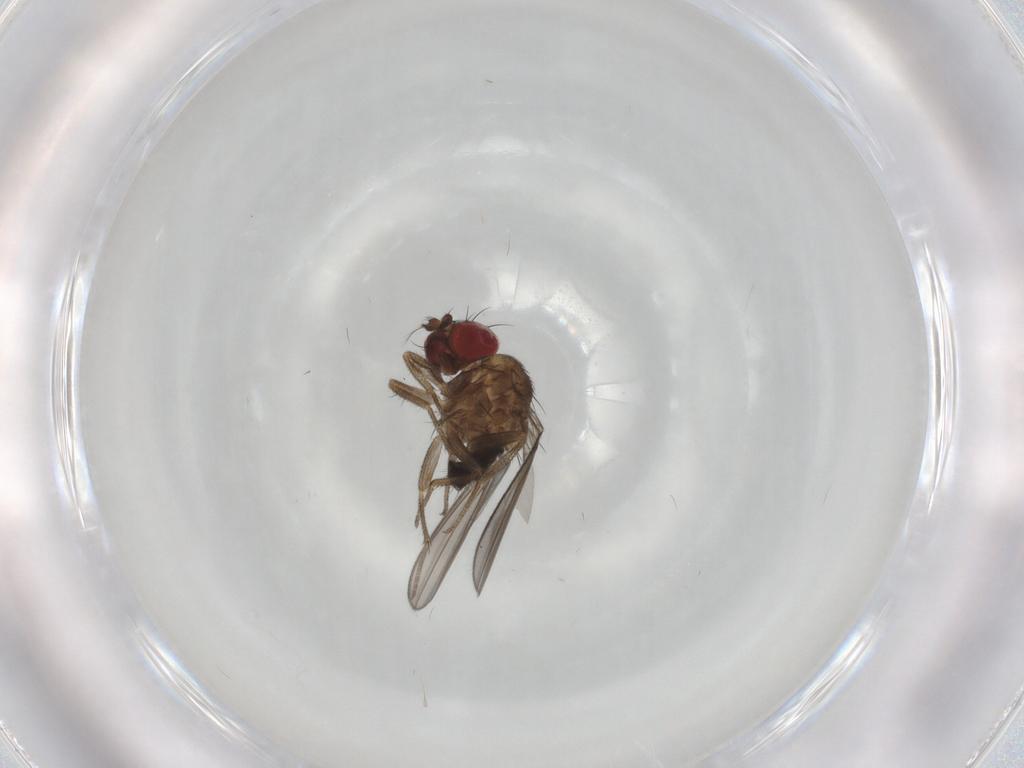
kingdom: Animalia
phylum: Arthropoda
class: Insecta
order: Diptera
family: Drosophilidae
